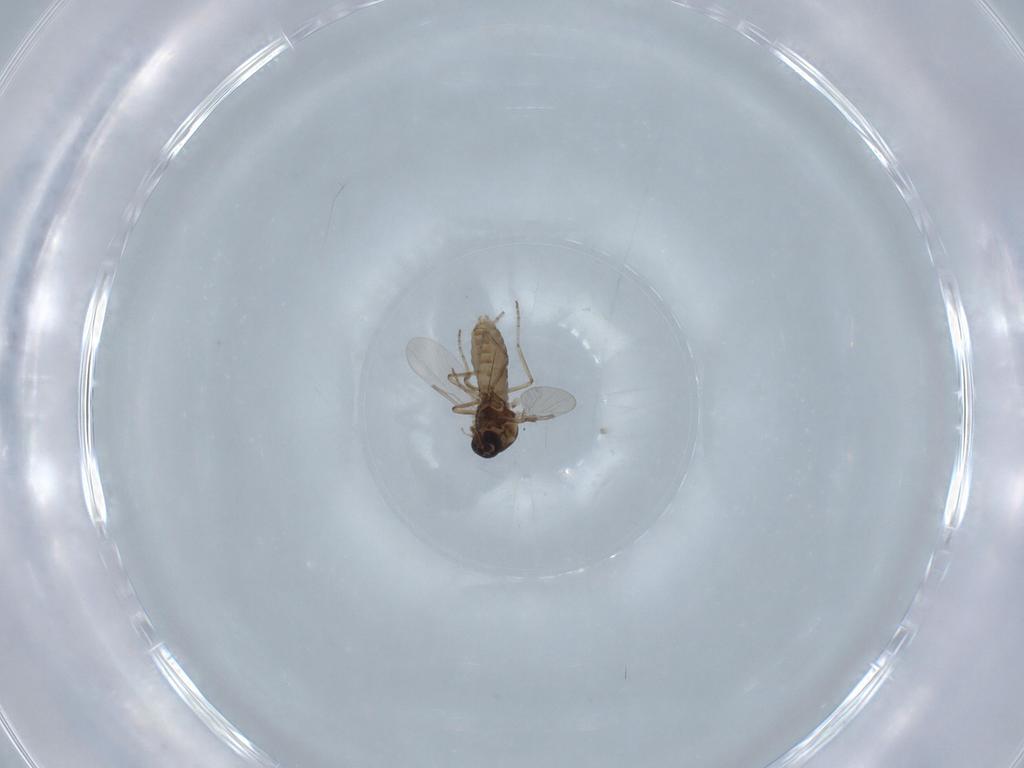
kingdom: Animalia
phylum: Arthropoda
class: Insecta
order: Diptera
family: Ceratopogonidae
